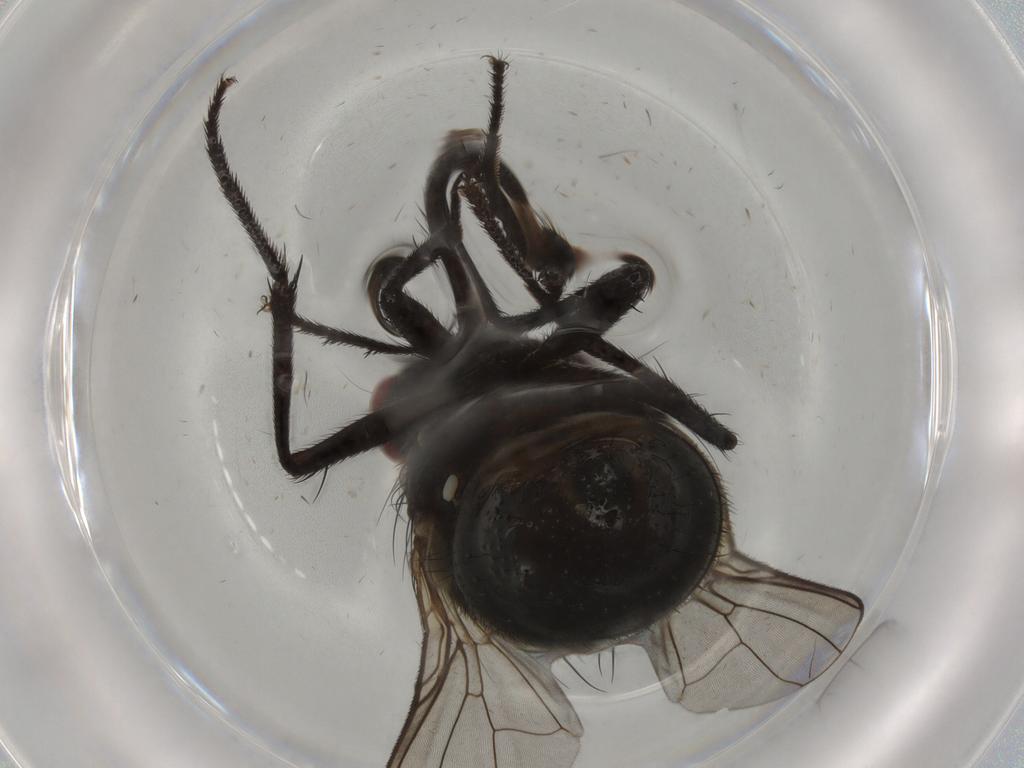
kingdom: Animalia
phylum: Arthropoda
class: Insecta
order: Diptera
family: Muscidae
